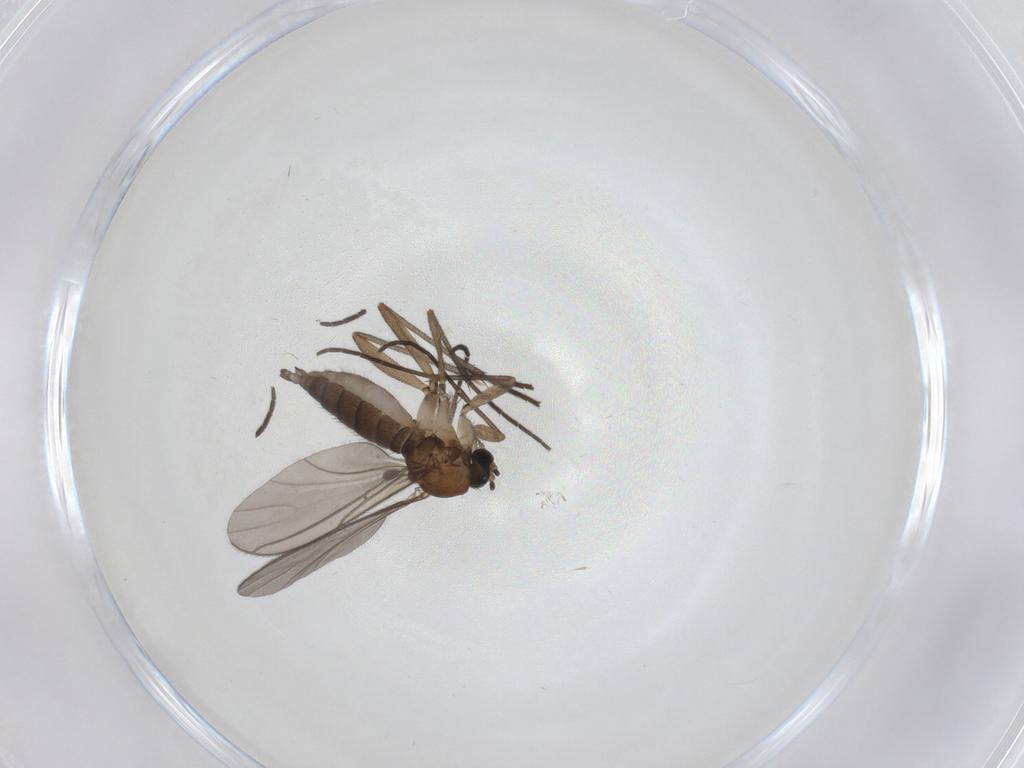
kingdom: Animalia
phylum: Arthropoda
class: Insecta
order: Diptera
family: Sciaridae
